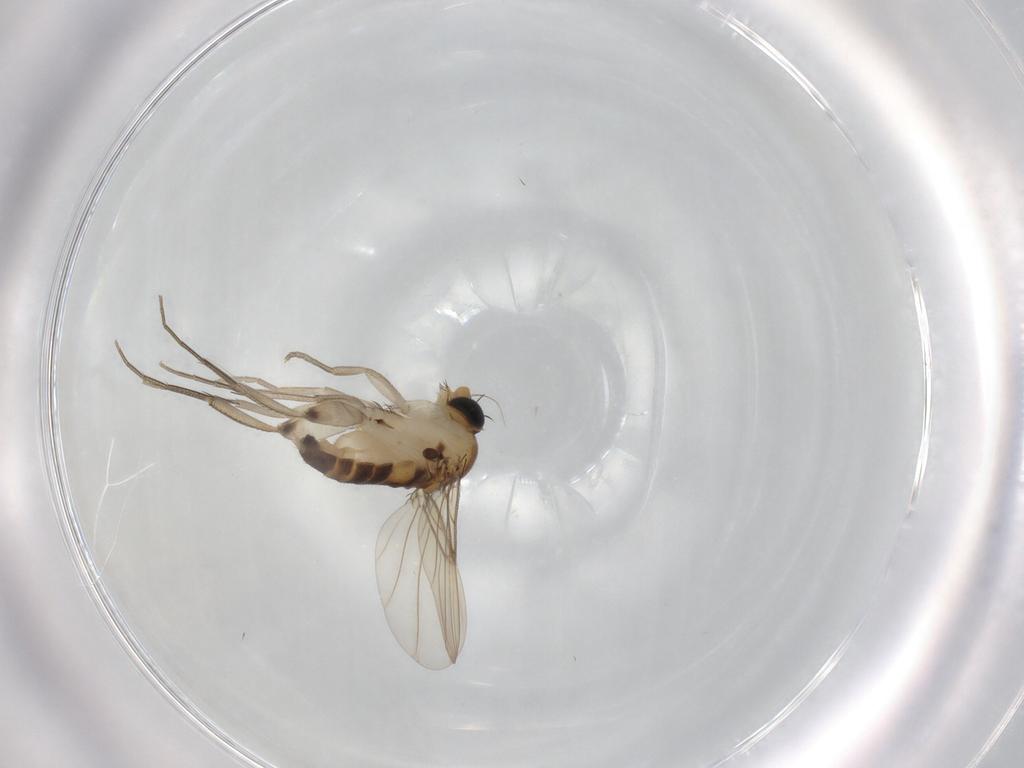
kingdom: Animalia
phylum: Arthropoda
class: Insecta
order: Diptera
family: Phoridae
